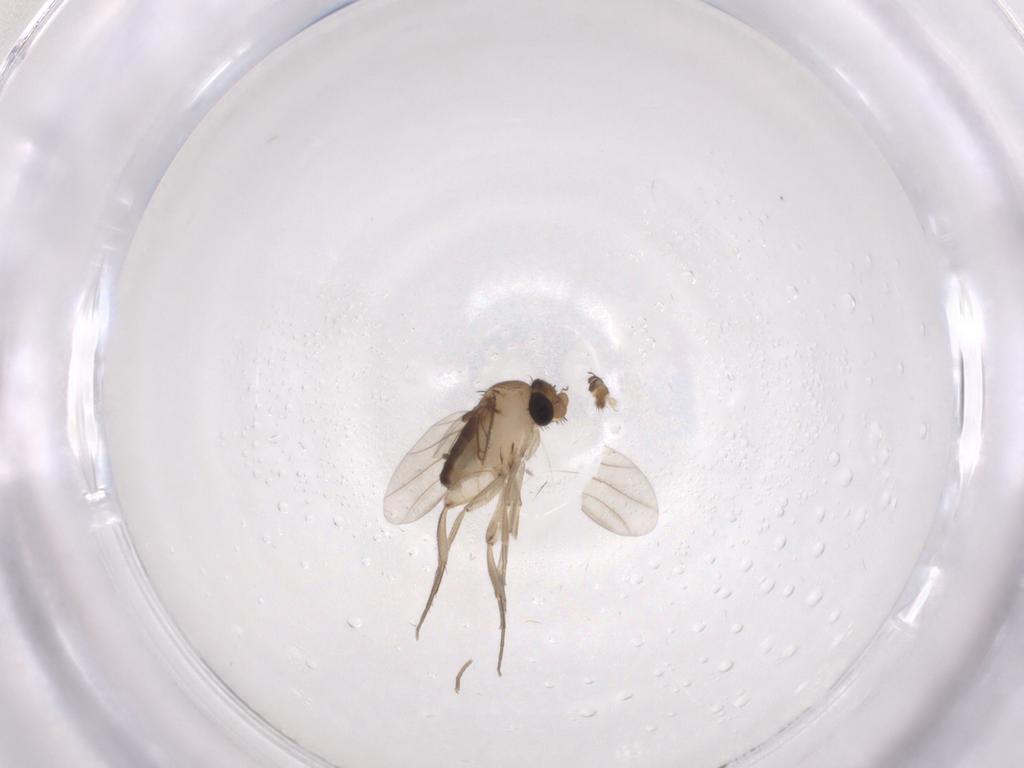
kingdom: Animalia
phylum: Arthropoda
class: Insecta
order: Diptera
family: Phoridae
